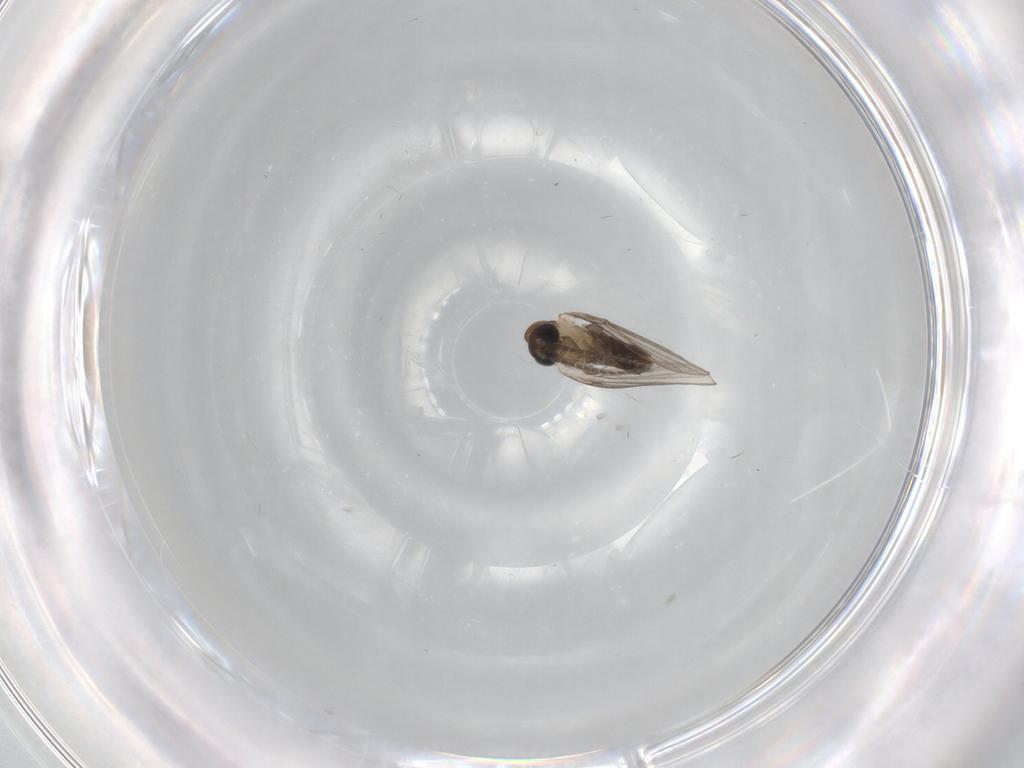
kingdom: Animalia
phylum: Arthropoda
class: Insecta
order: Diptera
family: Psychodidae
